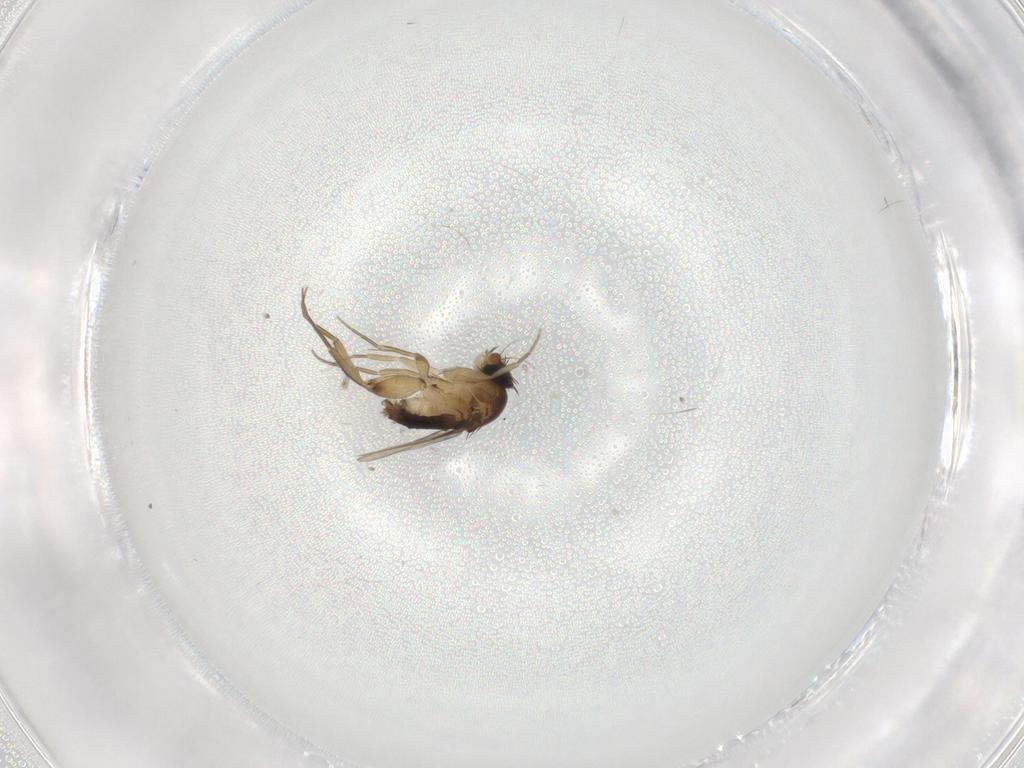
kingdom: Animalia
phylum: Arthropoda
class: Insecta
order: Diptera
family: Phoridae
